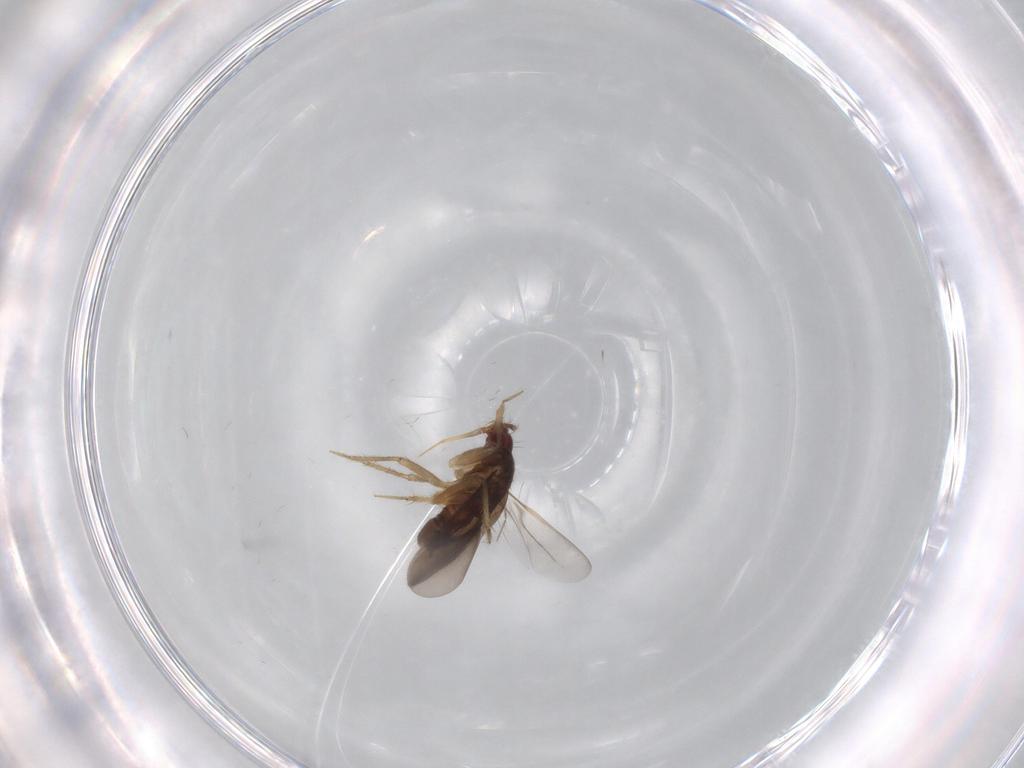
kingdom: Animalia
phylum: Arthropoda
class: Insecta
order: Hemiptera
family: Ceratocombidae
